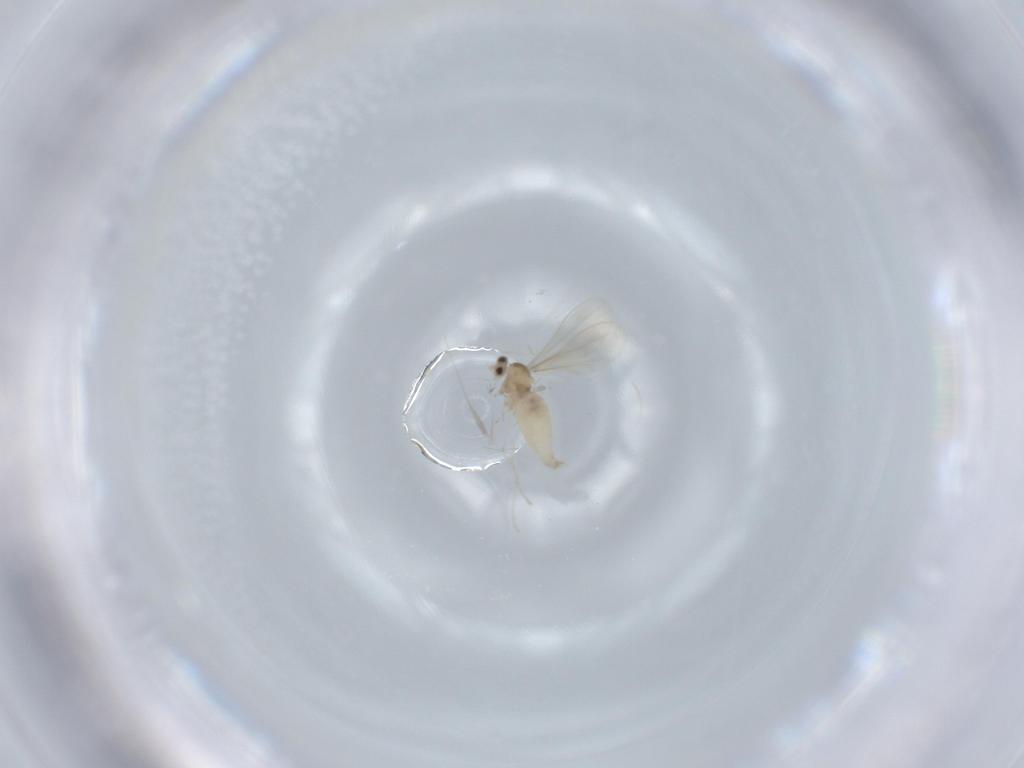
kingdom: Animalia
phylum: Arthropoda
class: Insecta
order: Diptera
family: Cecidomyiidae
